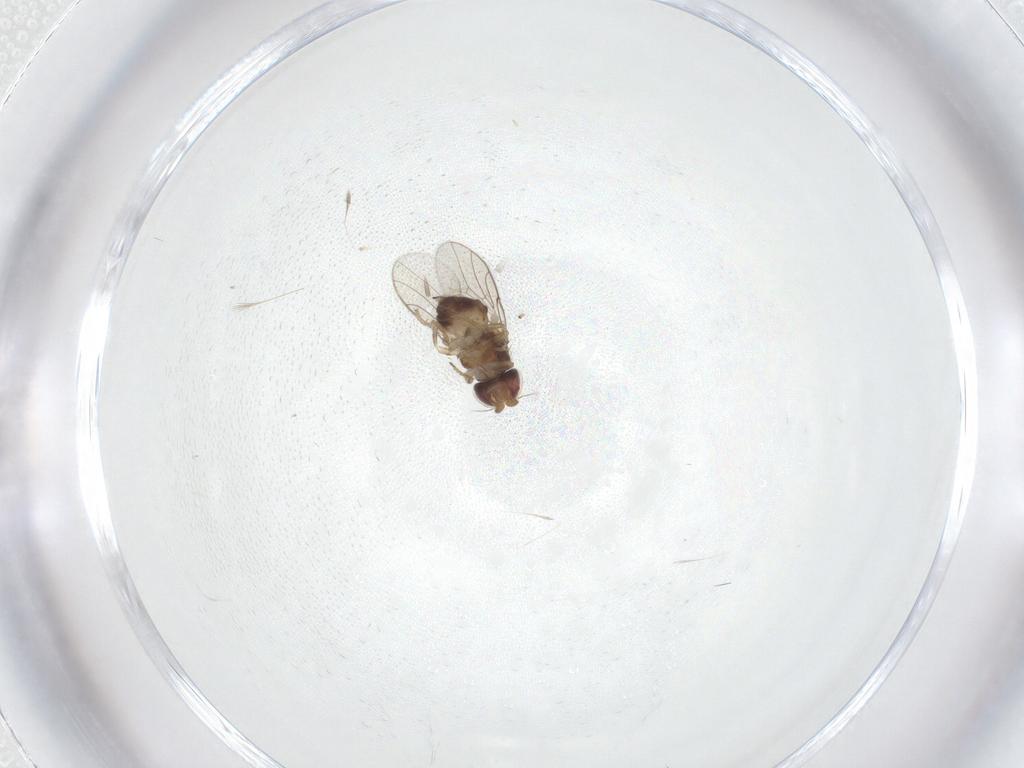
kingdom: Animalia
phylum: Arthropoda
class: Insecta
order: Diptera
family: Chloropidae
